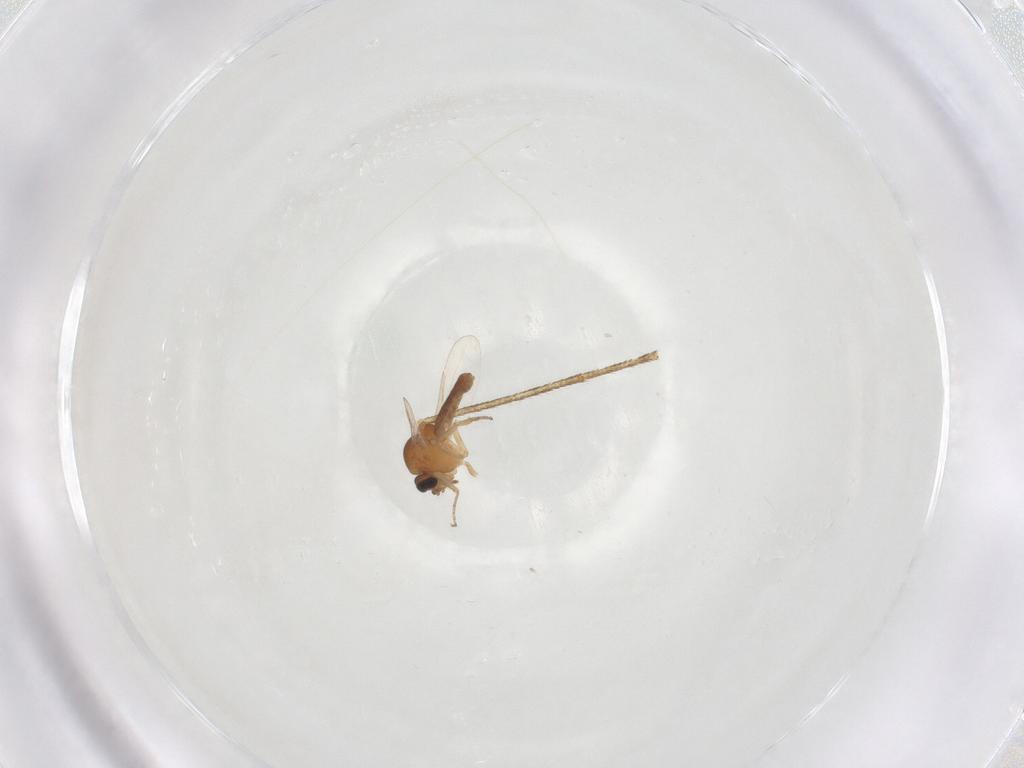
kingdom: Animalia
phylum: Arthropoda
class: Insecta
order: Diptera
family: Culicidae
